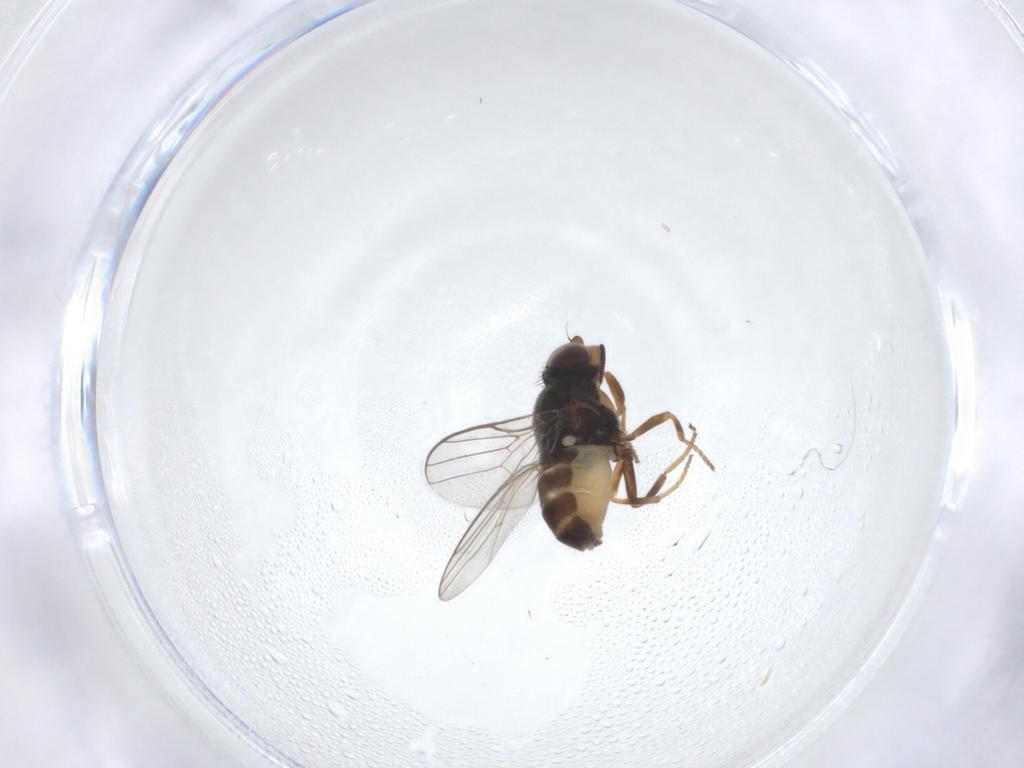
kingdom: Animalia
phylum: Arthropoda
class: Insecta
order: Diptera
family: Chloropidae
